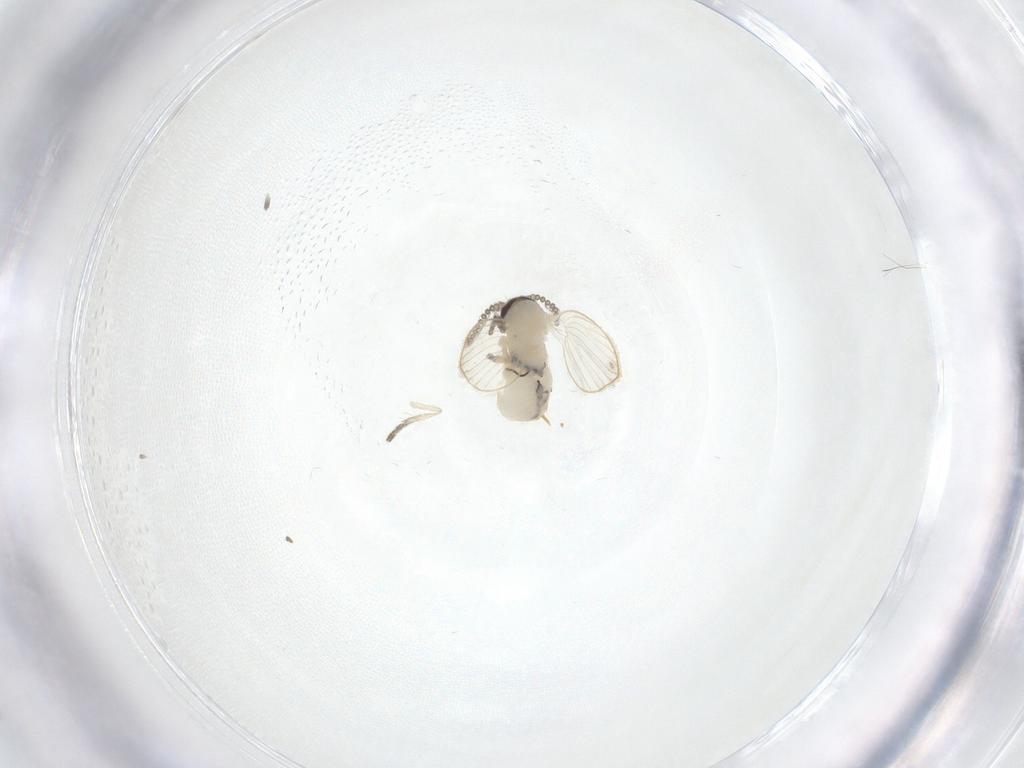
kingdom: Animalia
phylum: Arthropoda
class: Insecta
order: Diptera
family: Psychodidae
